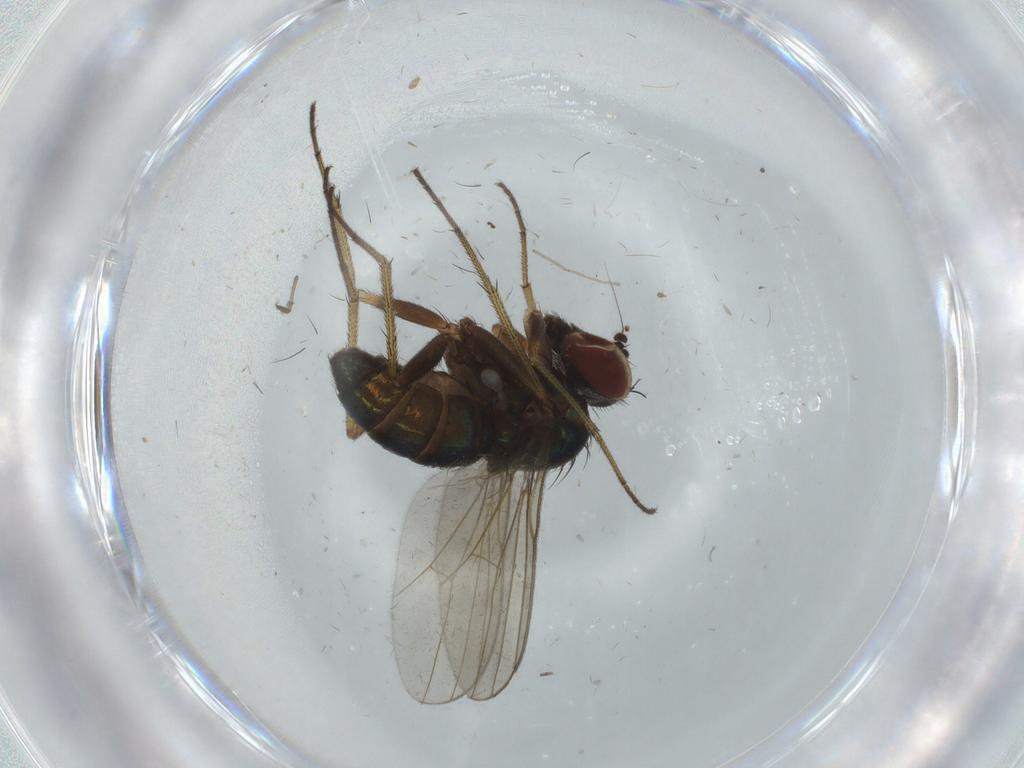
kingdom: Animalia
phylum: Arthropoda
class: Insecta
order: Diptera
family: Dolichopodidae
